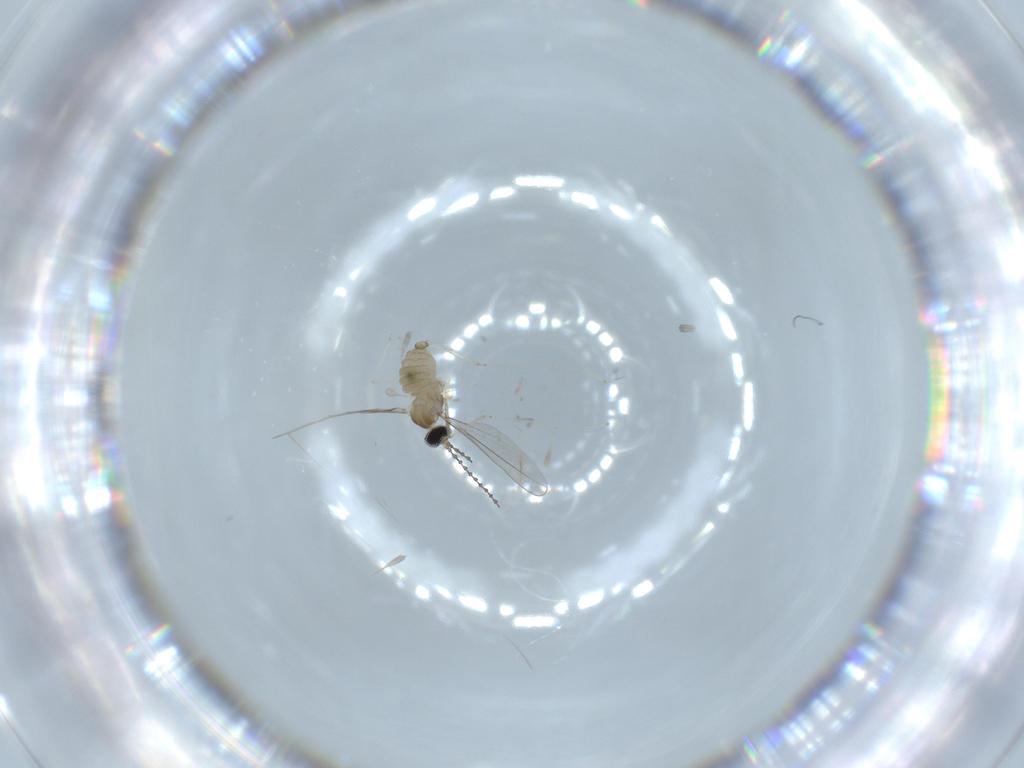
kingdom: Animalia
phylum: Arthropoda
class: Insecta
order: Diptera
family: Cecidomyiidae
